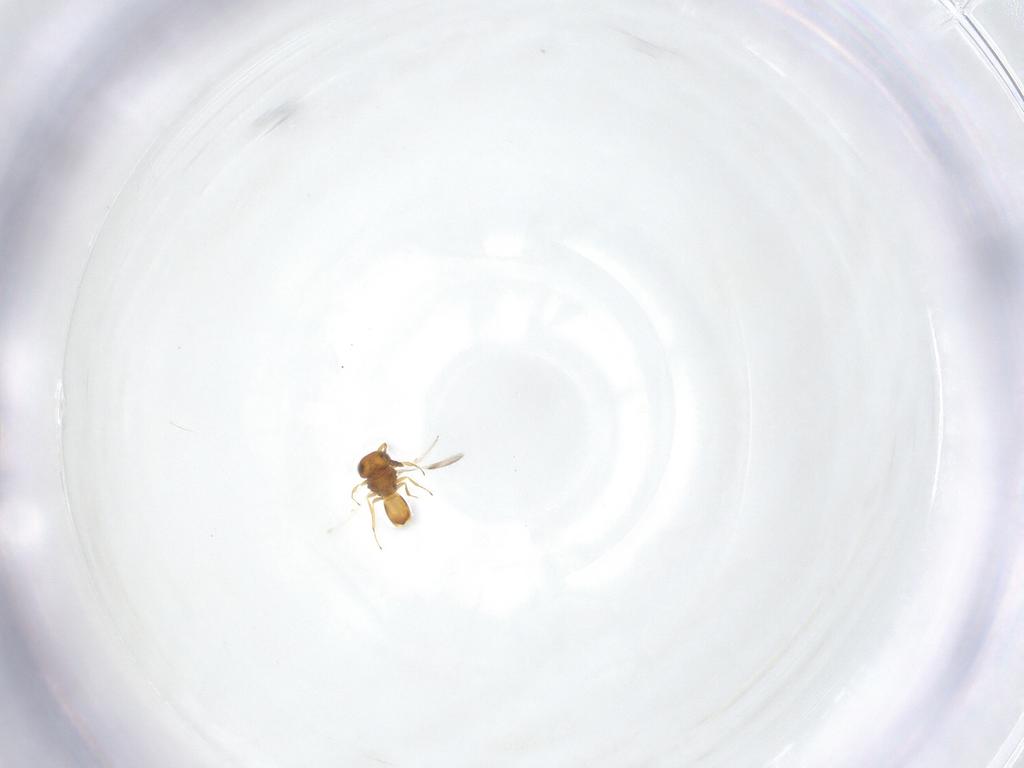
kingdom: Animalia
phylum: Arthropoda
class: Insecta
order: Hymenoptera
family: Scelionidae
